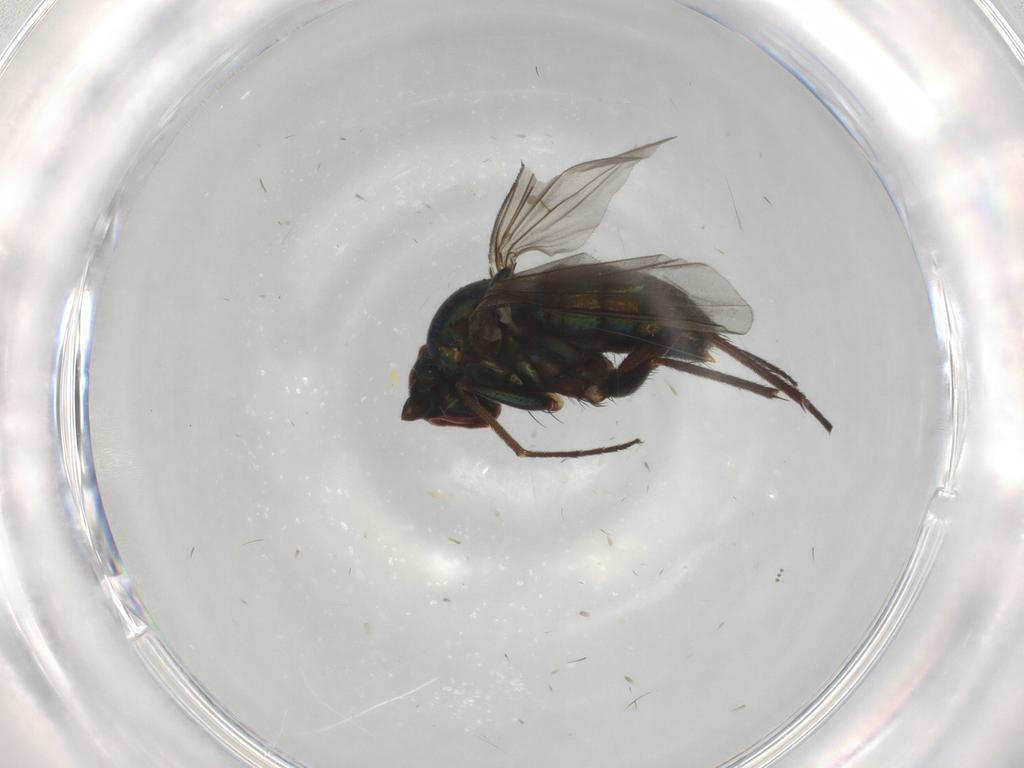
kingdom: Animalia
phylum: Arthropoda
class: Insecta
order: Diptera
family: Dolichopodidae
